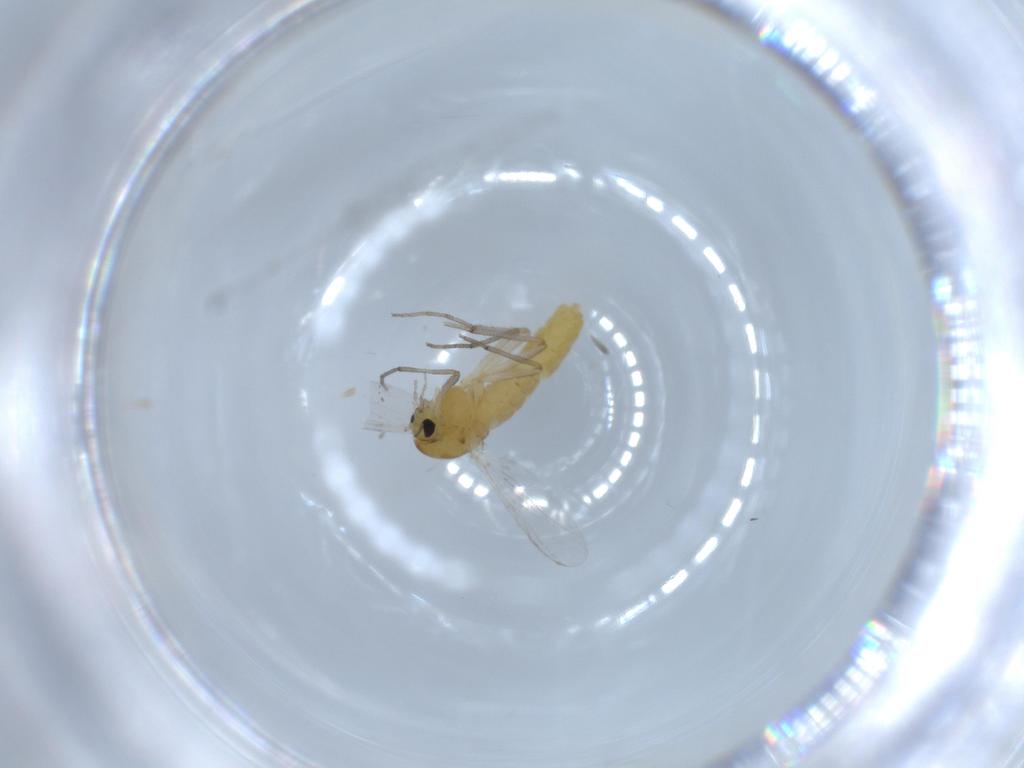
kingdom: Animalia
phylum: Arthropoda
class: Insecta
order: Diptera
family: Chironomidae
